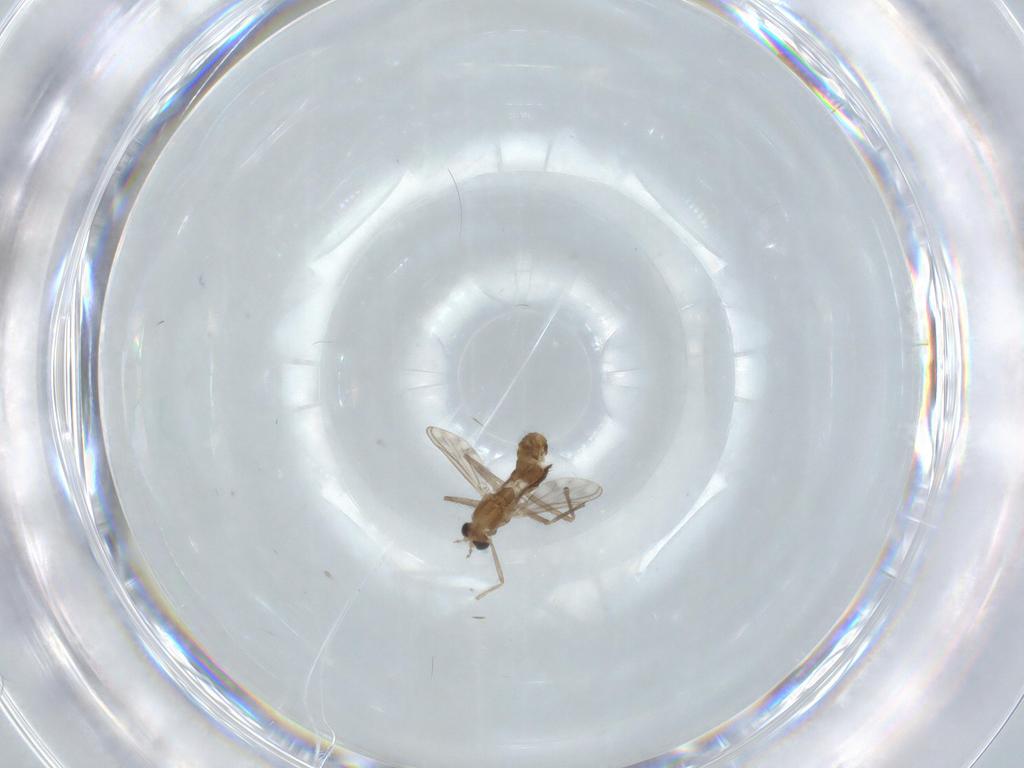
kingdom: Animalia
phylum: Arthropoda
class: Insecta
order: Diptera
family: Chironomidae
